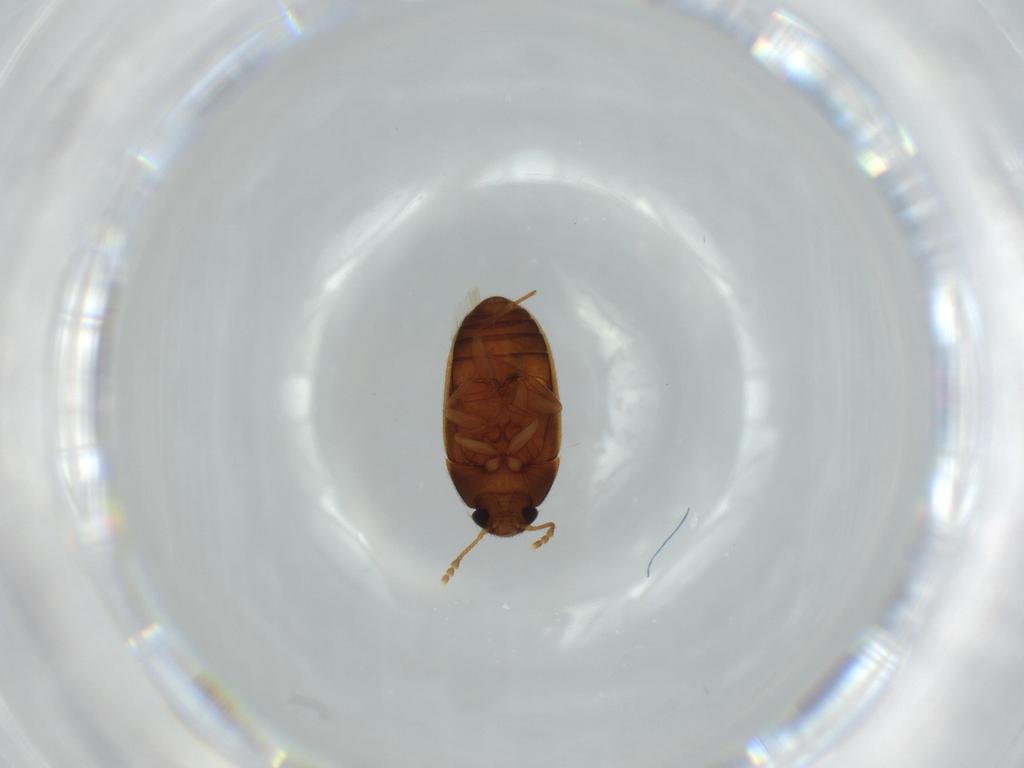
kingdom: Animalia
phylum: Arthropoda
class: Insecta
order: Coleoptera
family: Mycetophagidae
